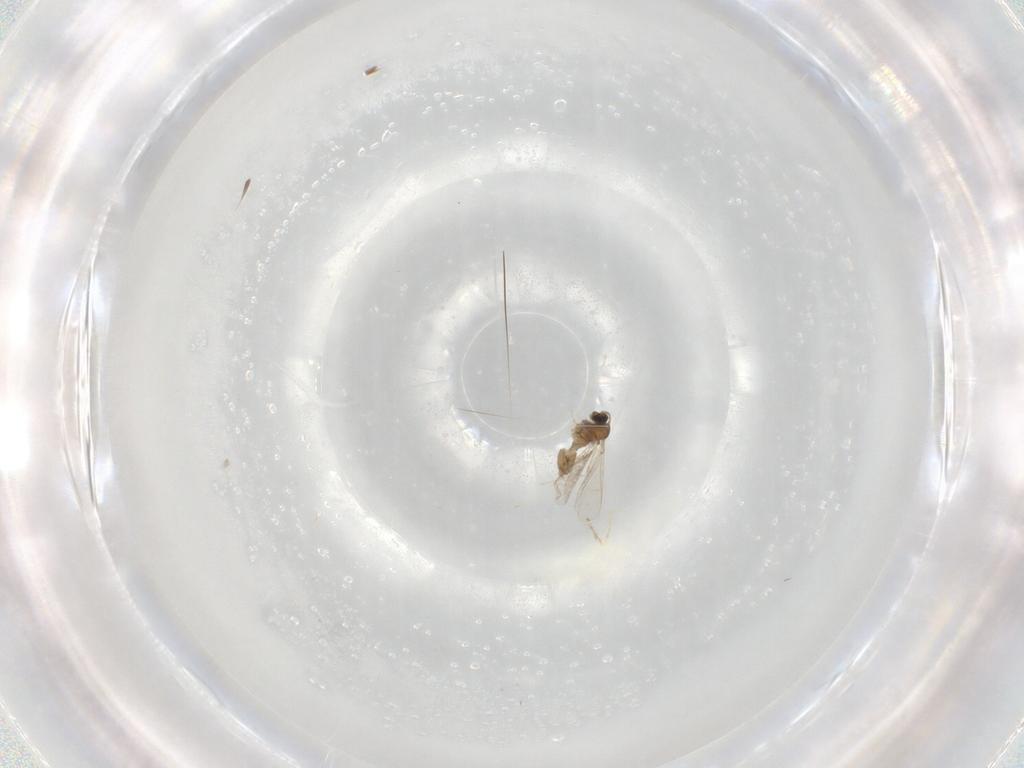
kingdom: Animalia
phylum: Arthropoda
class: Insecta
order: Diptera
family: Cecidomyiidae
